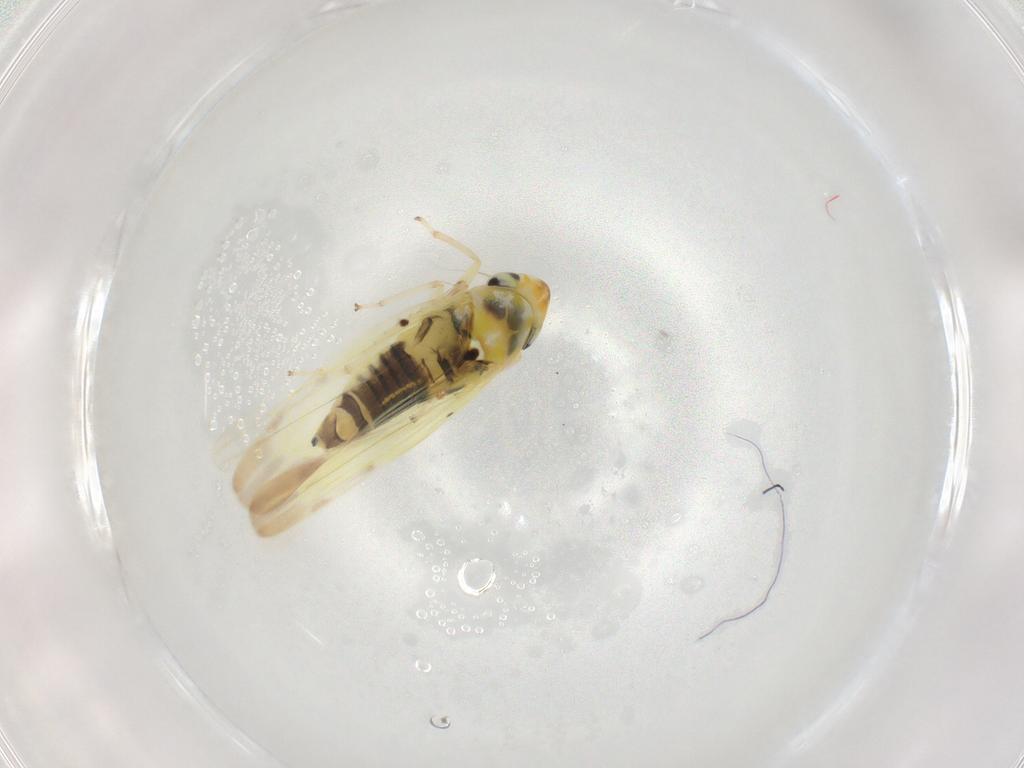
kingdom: Animalia
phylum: Arthropoda
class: Insecta
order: Hemiptera
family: Cicadellidae
